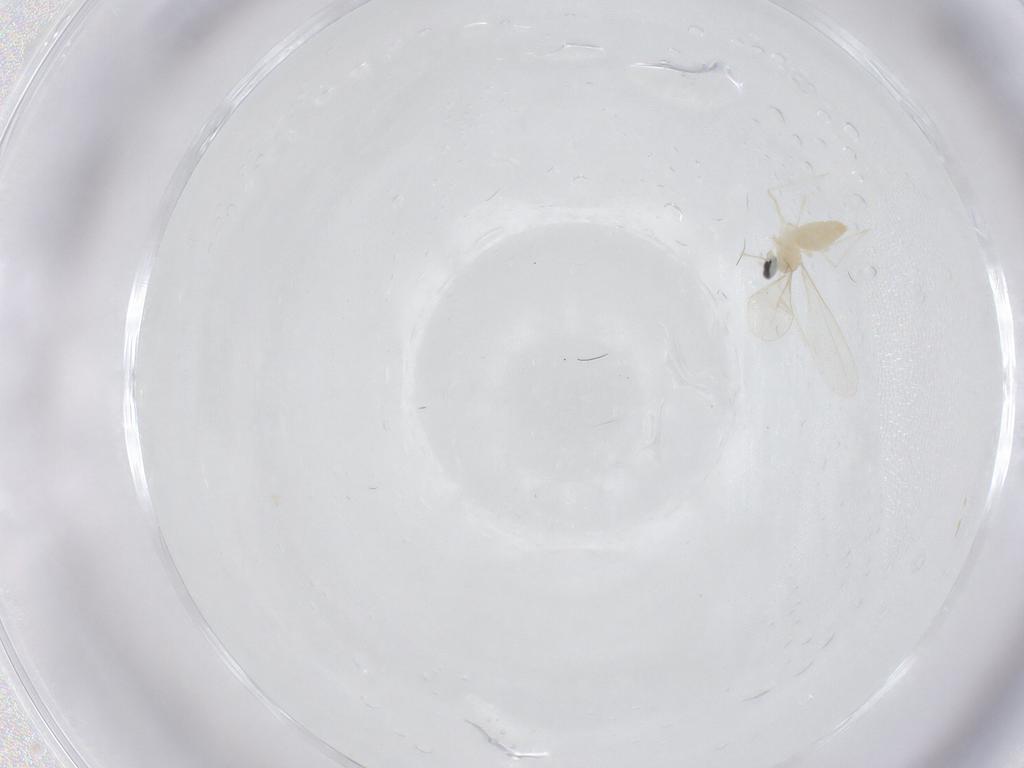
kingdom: Animalia
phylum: Arthropoda
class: Insecta
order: Diptera
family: Cecidomyiidae
